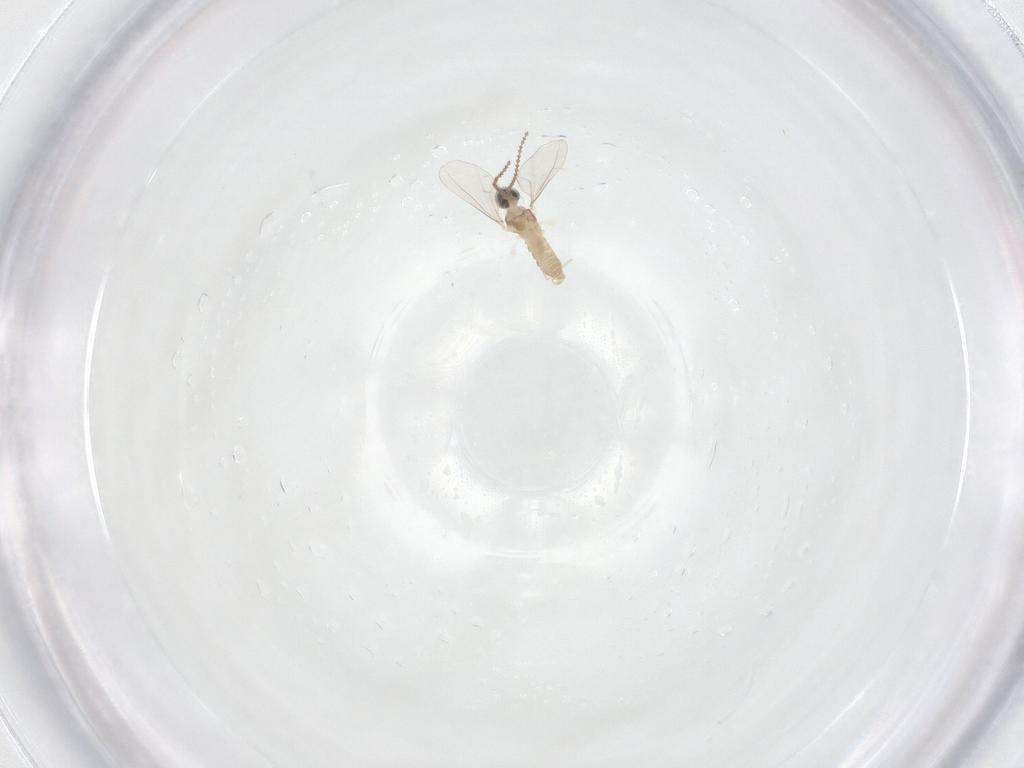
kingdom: Animalia
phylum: Arthropoda
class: Insecta
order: Diptera
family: Cecidomyiidae
